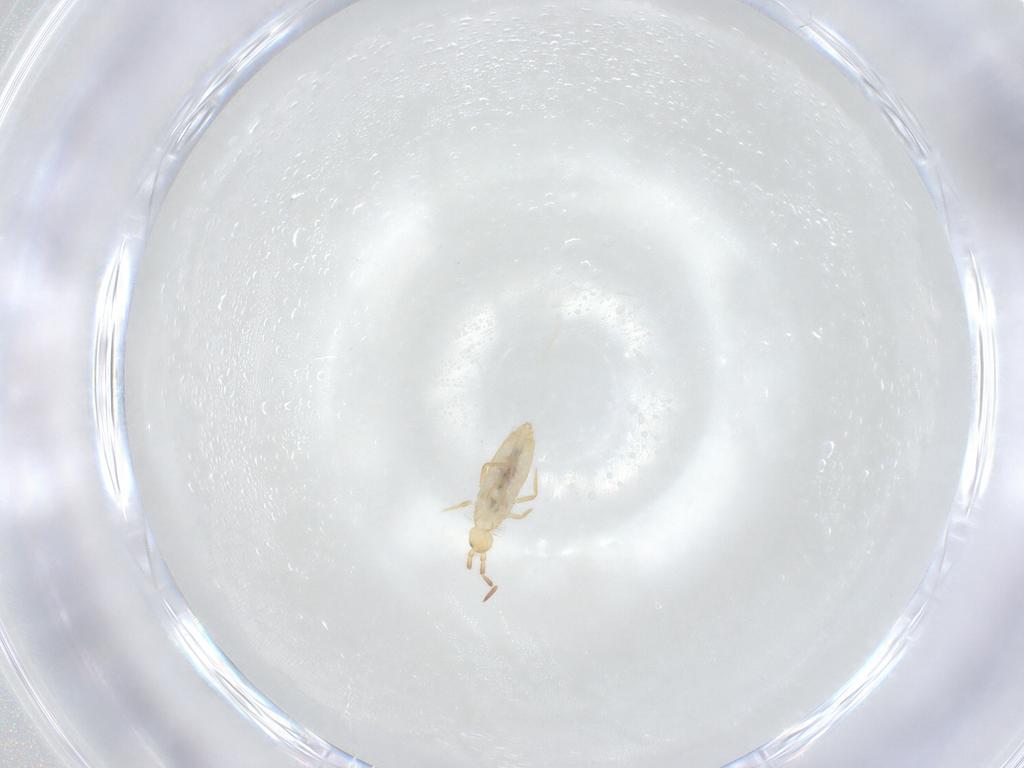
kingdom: Animalia
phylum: Arthropoda
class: Collembola
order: Entomobryomorpha
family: Entomobryidae
